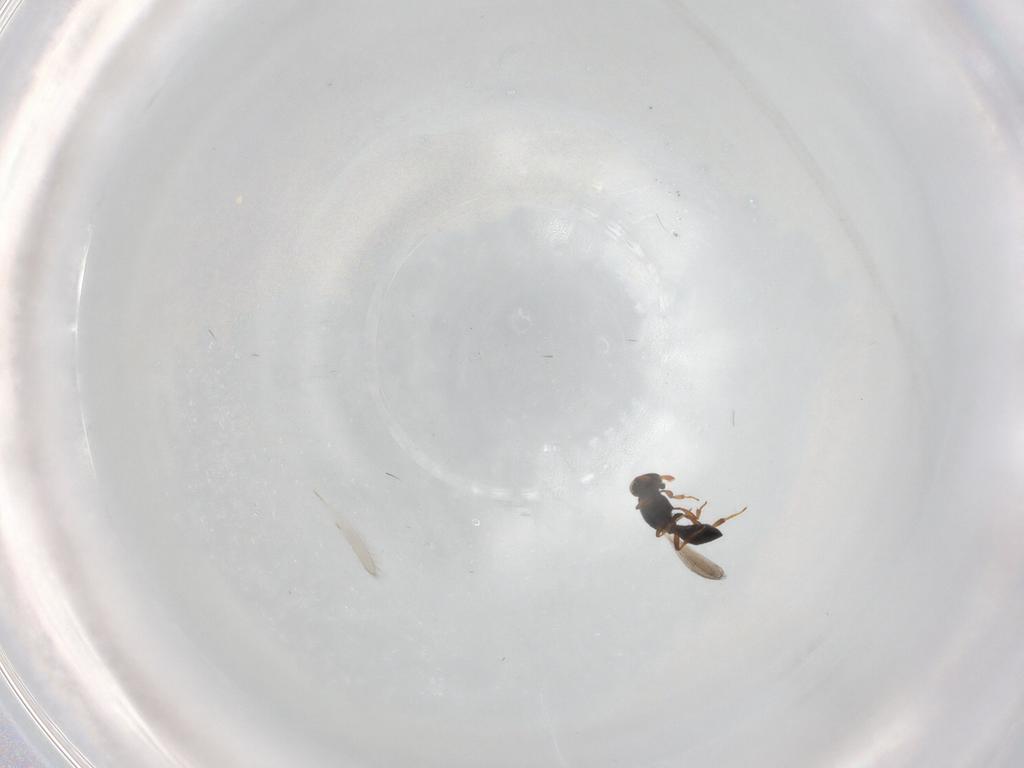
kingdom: Animalia
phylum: Arthropoda
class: Insecta
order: Hymenoptera
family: Platygastridae
